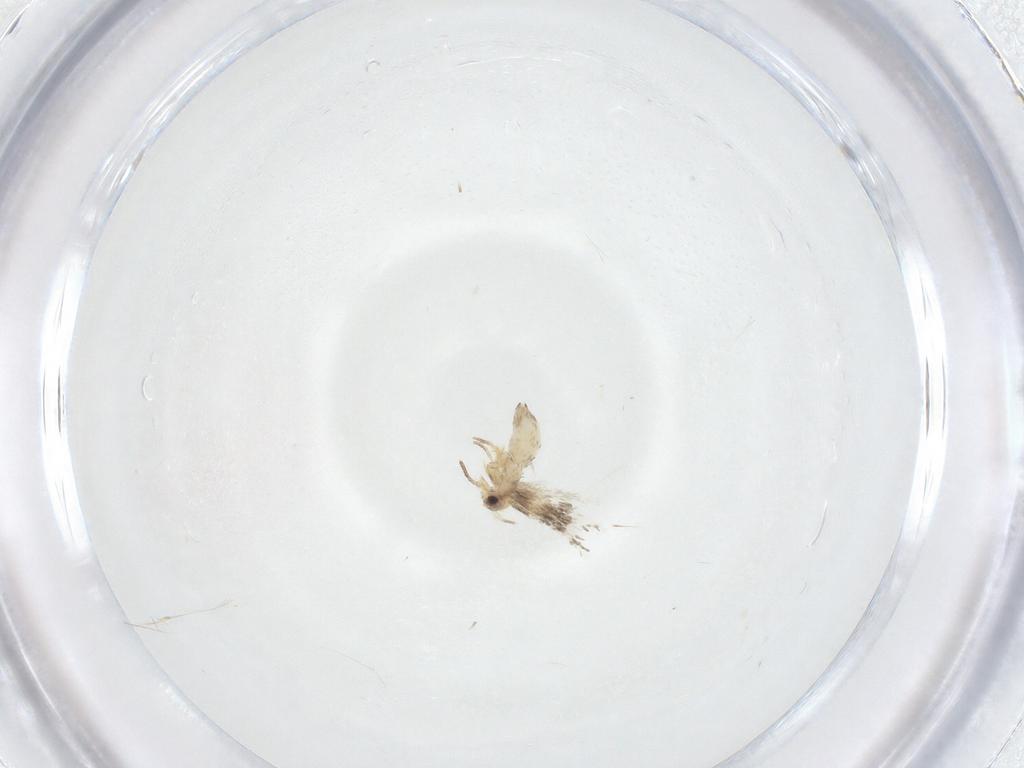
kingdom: Animalia
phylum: Arthropoda
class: Insecta
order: Lepidoptera
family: Nepticulidae
